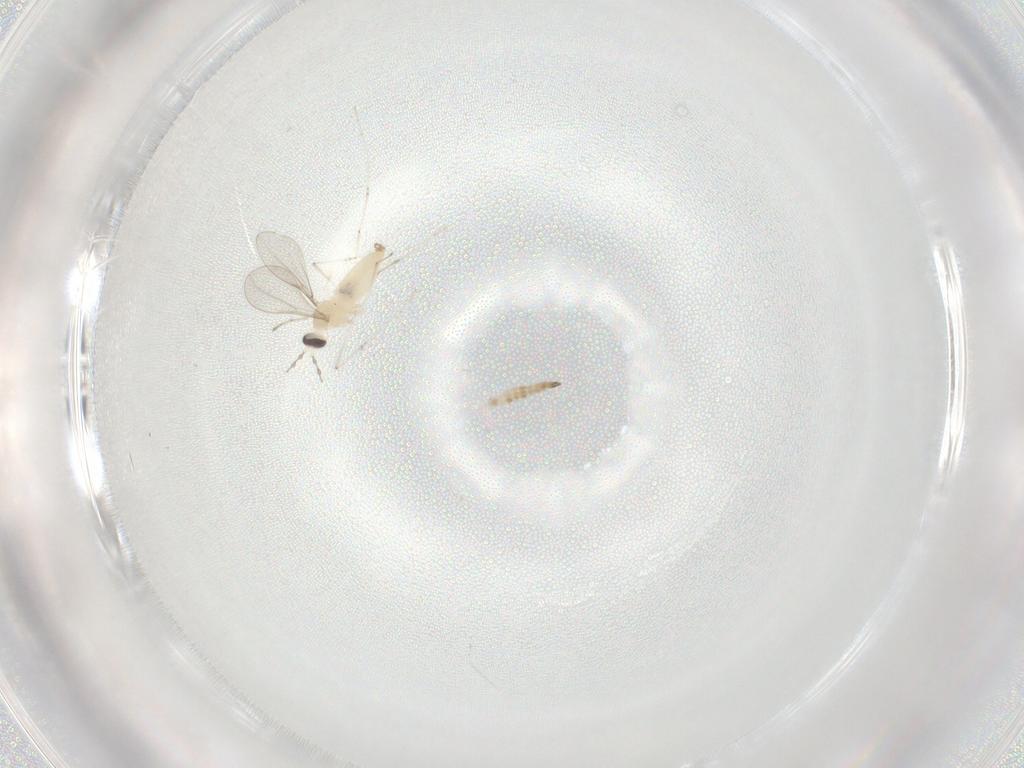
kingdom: Animalia
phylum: Arthropoda
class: Insecta
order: Diptera
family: Cecidomyiidae
